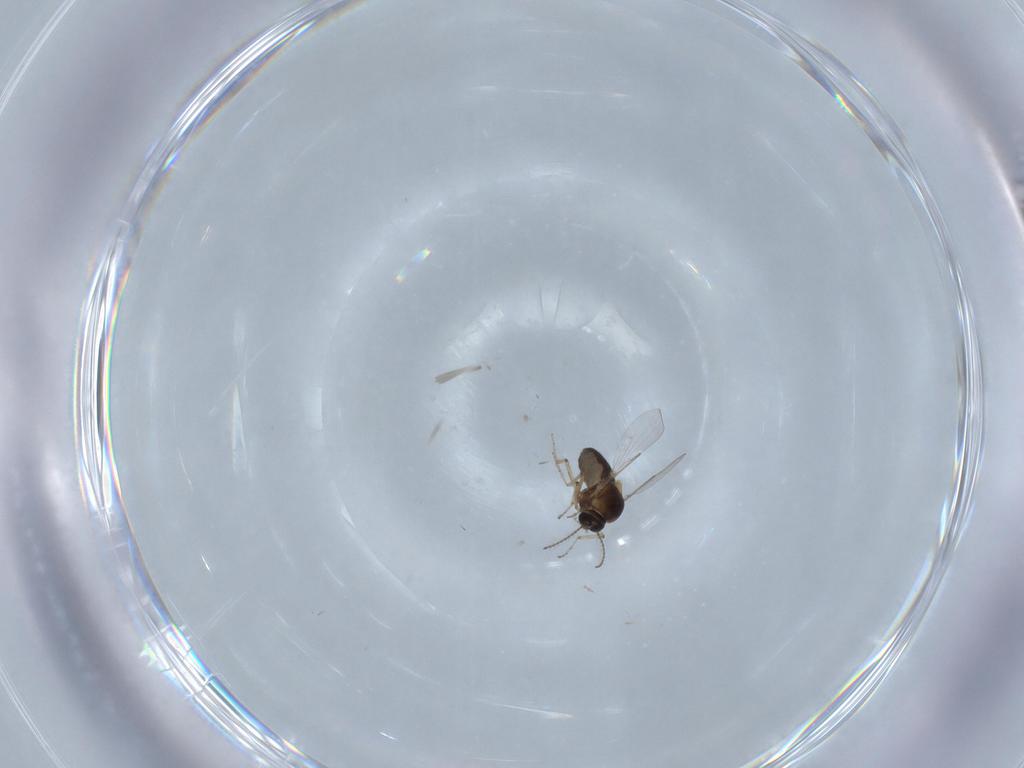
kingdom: Animalia
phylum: Arthropoda
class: Insecta
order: Diptera
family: Ceratopogonidae
